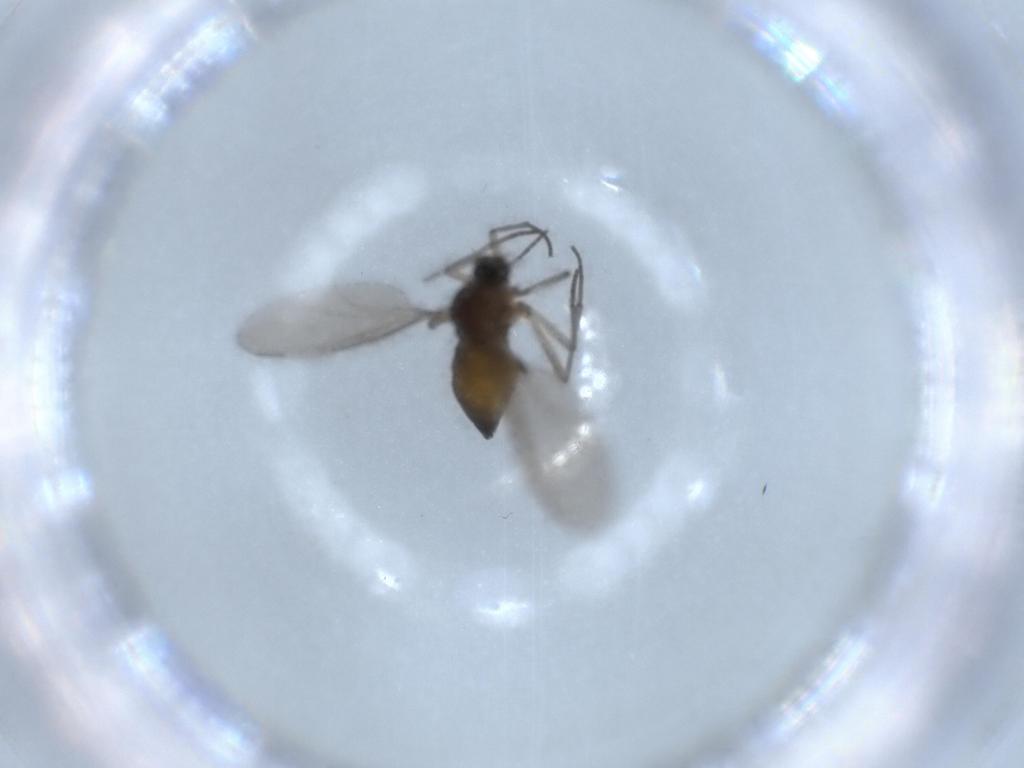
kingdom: Animalia
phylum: Arthropoda
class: Insecta
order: Diptera
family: Sciaridae
